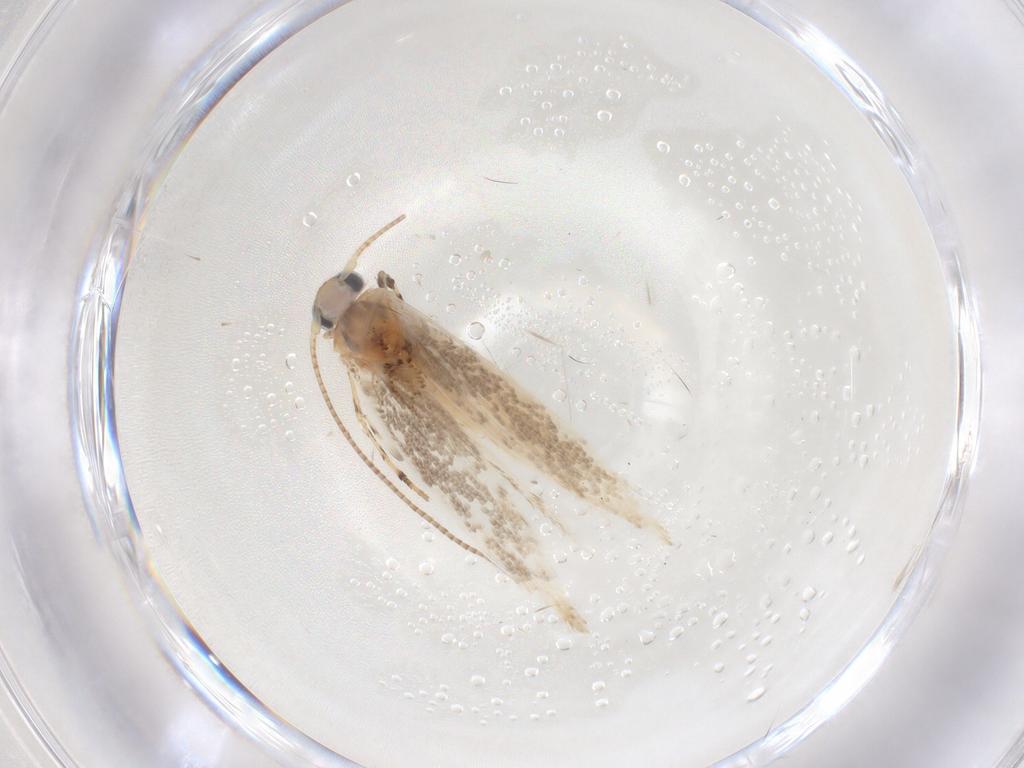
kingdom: Animalia
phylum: Arthropoda
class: Insecta
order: Lepidoptera
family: Gracillariidae
